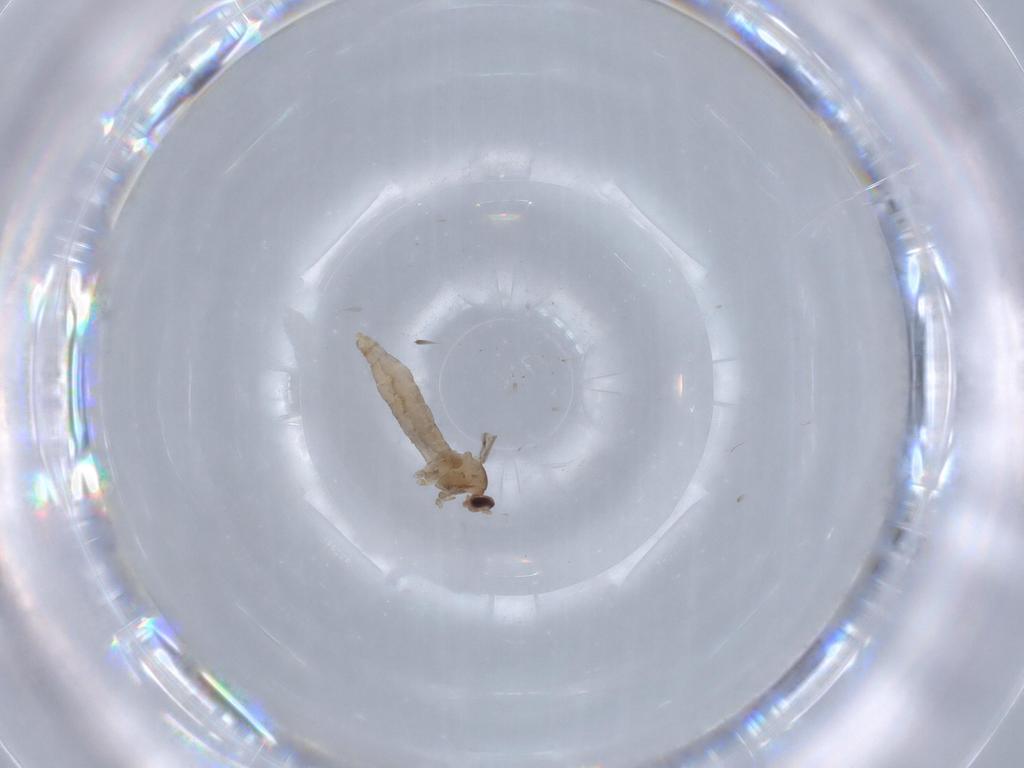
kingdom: Animalia
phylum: Arthropoda
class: Insecta
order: Diptera
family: Cecidomyiidae
